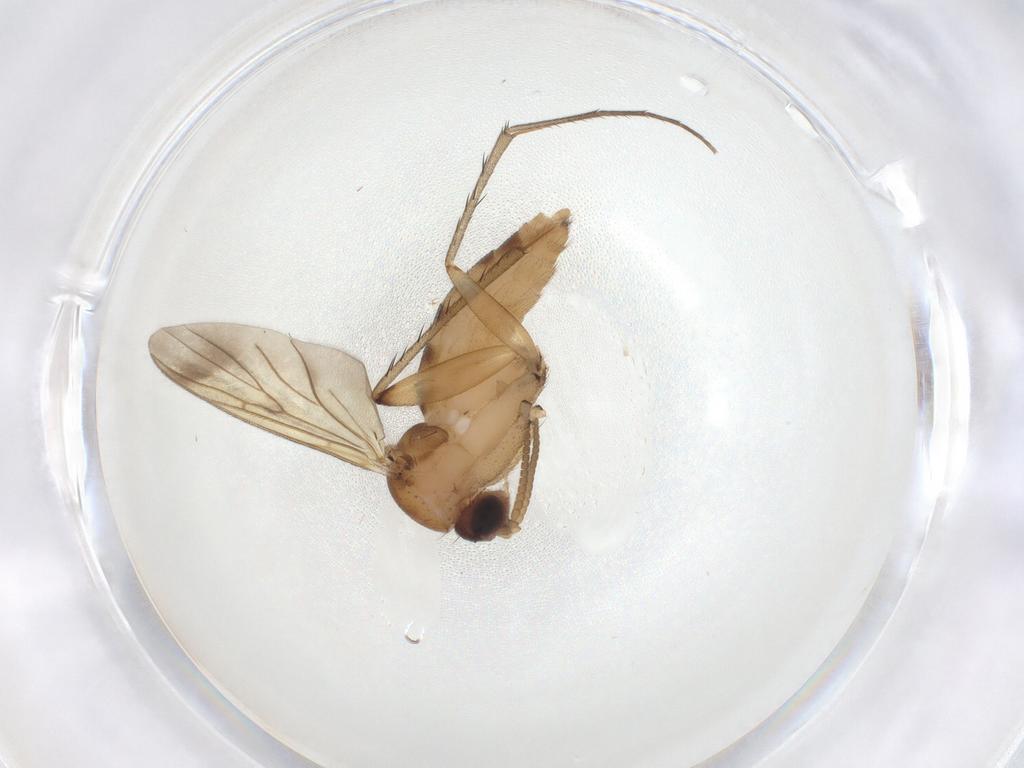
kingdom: Animalia
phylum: Arthropoda
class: Insecta
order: Diptera
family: Mycetophilidae
